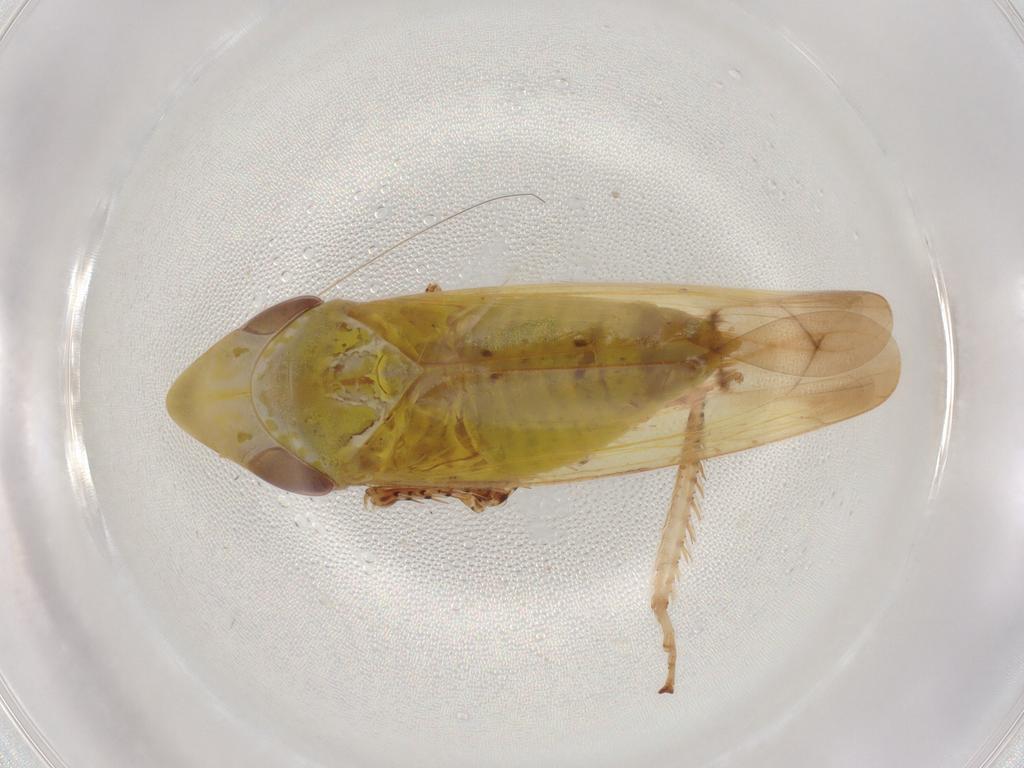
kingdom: Animalia
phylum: Arthropoda
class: Insecta
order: Hemiptera
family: Cicadellidae
